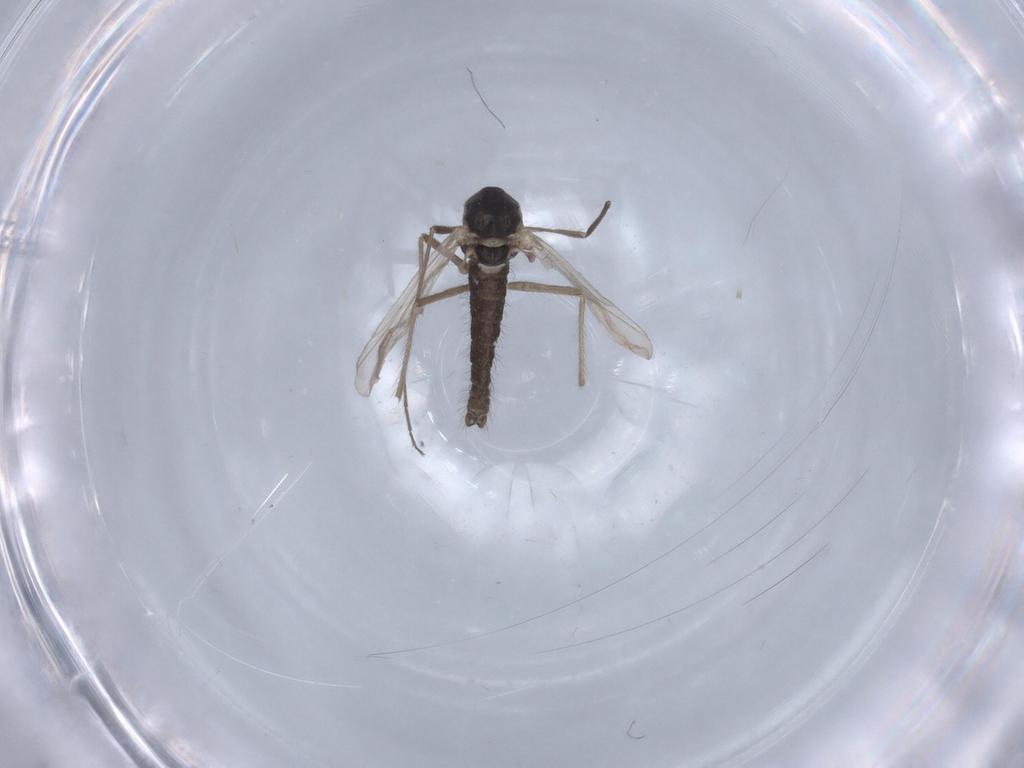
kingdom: Animalia
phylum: Arthropoda
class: Insecta
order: Diptera
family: Chironomidae
